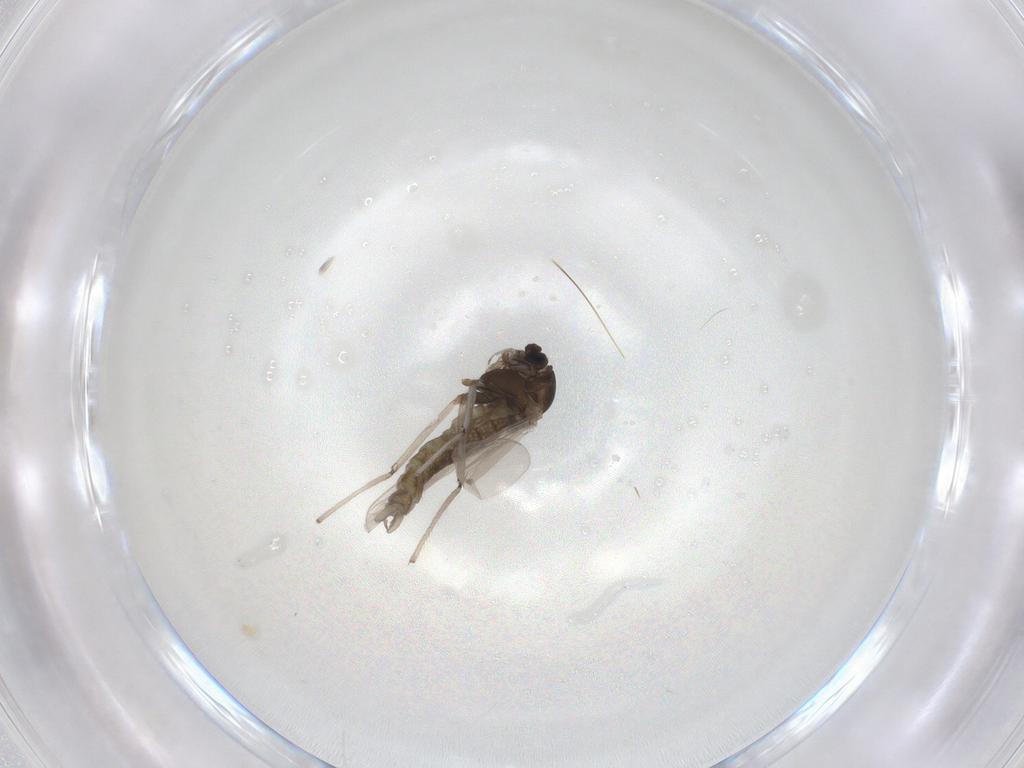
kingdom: Animalia
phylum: Arthropoda
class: Insecta
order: Diptera
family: Chironomidae
